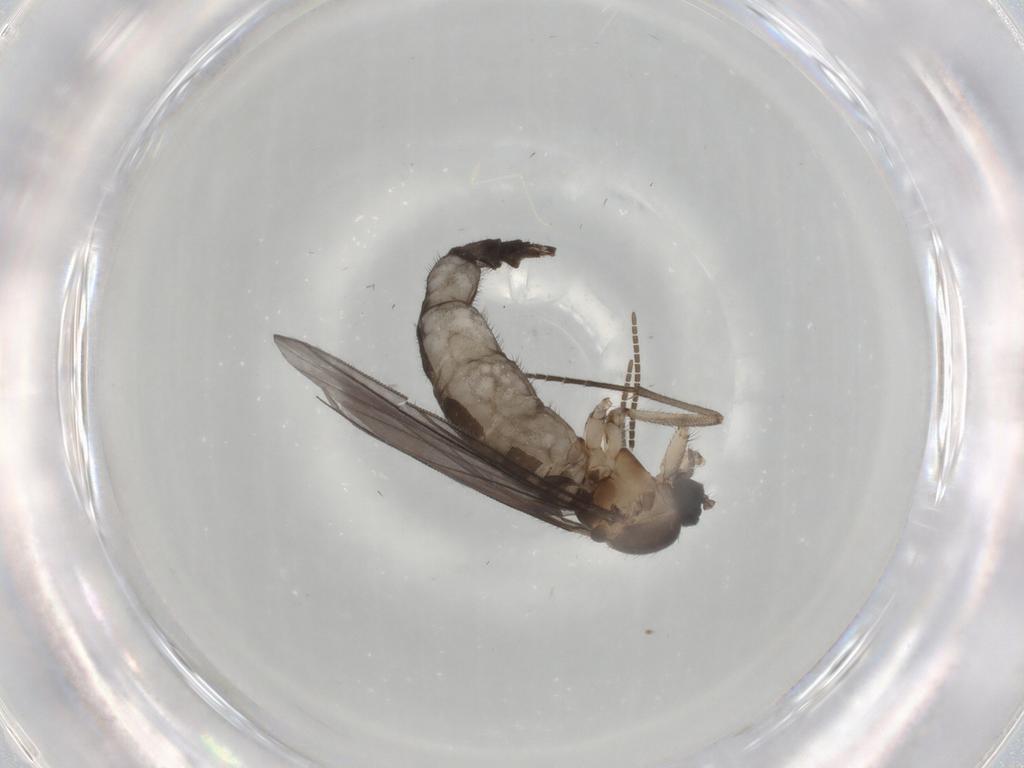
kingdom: Animalia
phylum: Arthropoda
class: Insecta
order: Diptera
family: Cecidomyiidae
